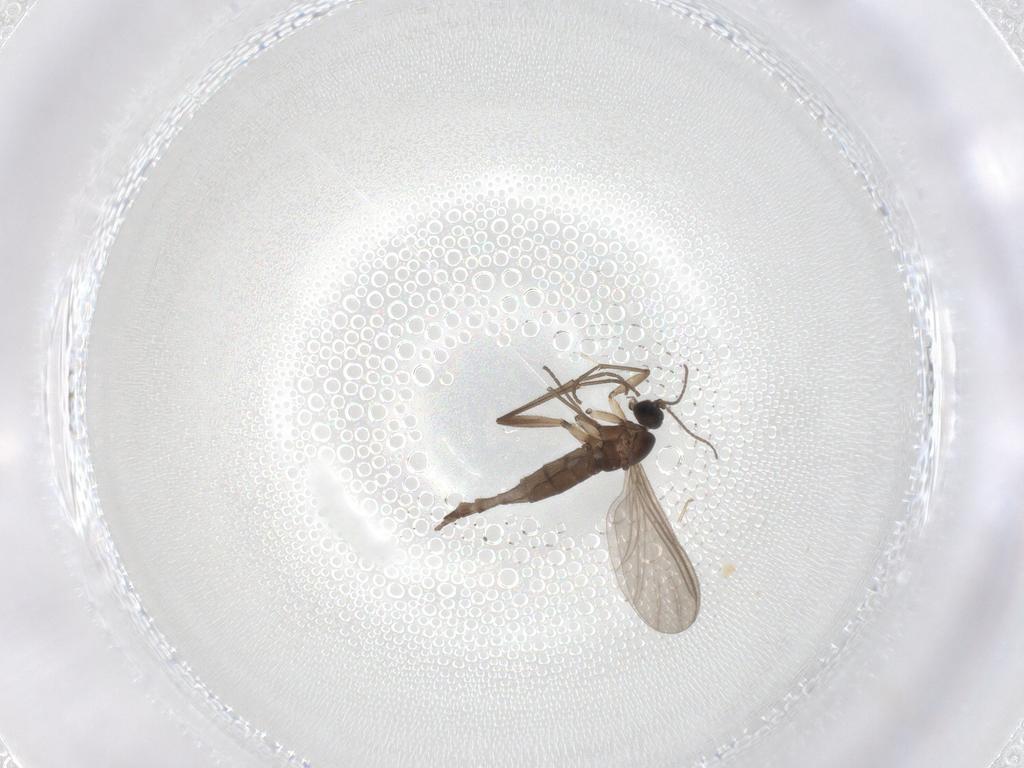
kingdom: Animalia
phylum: Arthropoda
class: Insecta
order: Diptera
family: Sciaridae
